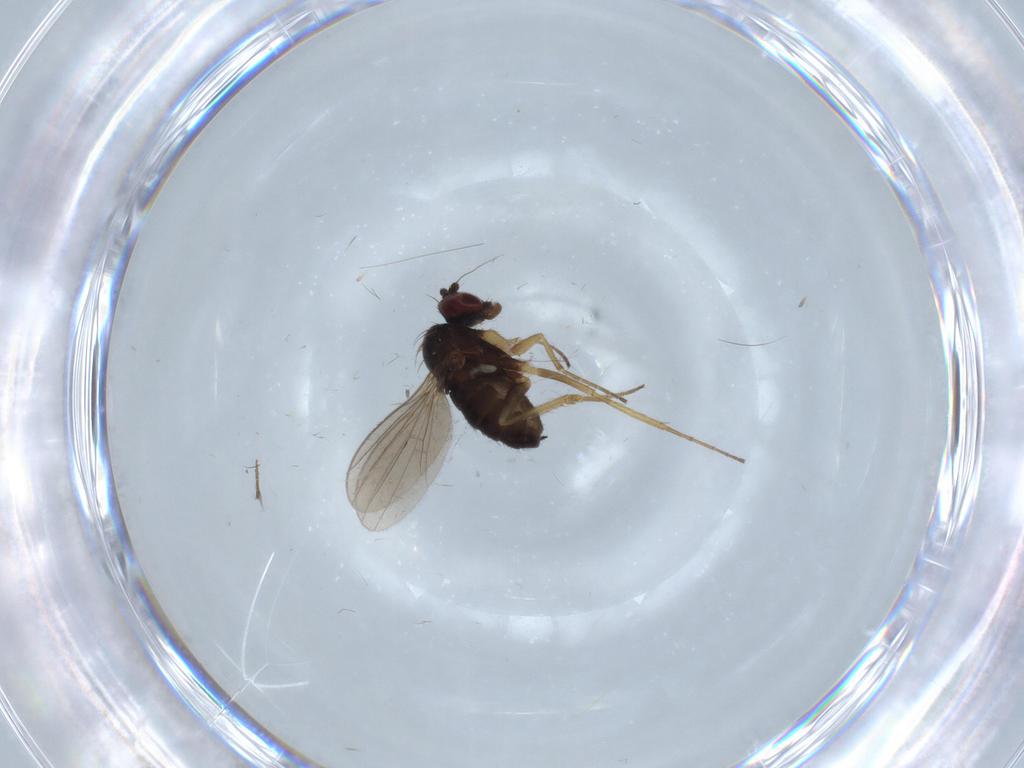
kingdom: Animalia
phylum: Arthropoda
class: Insecta
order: Diptera
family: Dolichopodidae
